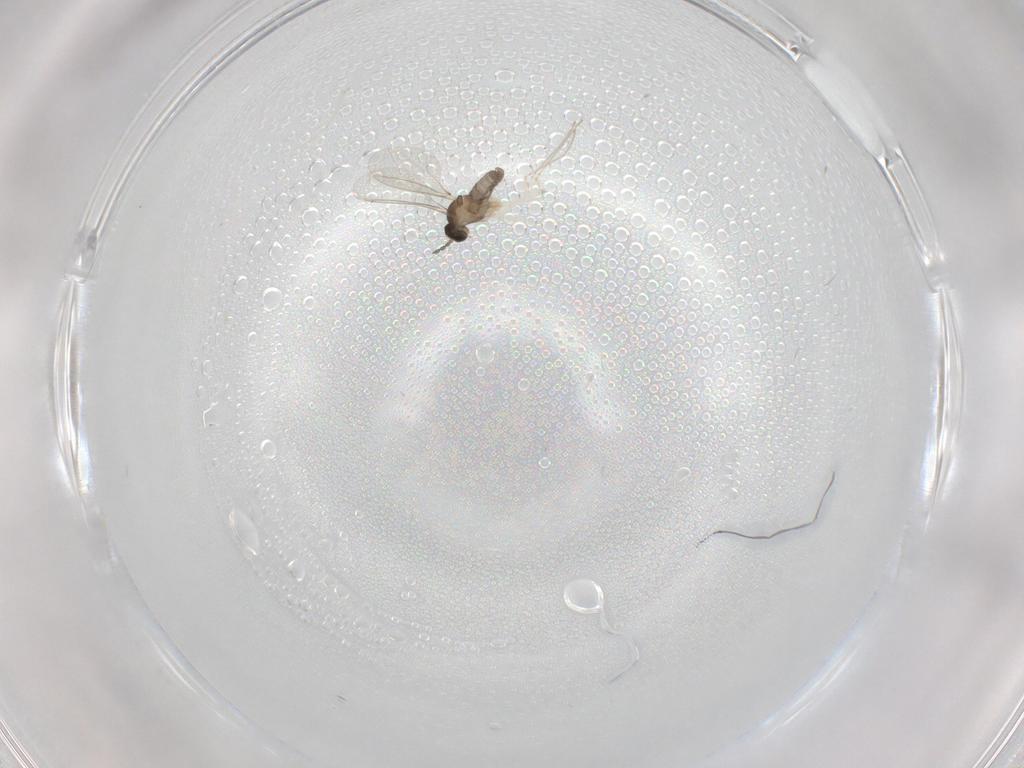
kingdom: Animalia
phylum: Arthropoda
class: Insecta
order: Diptera
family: Cecidomyiidae
